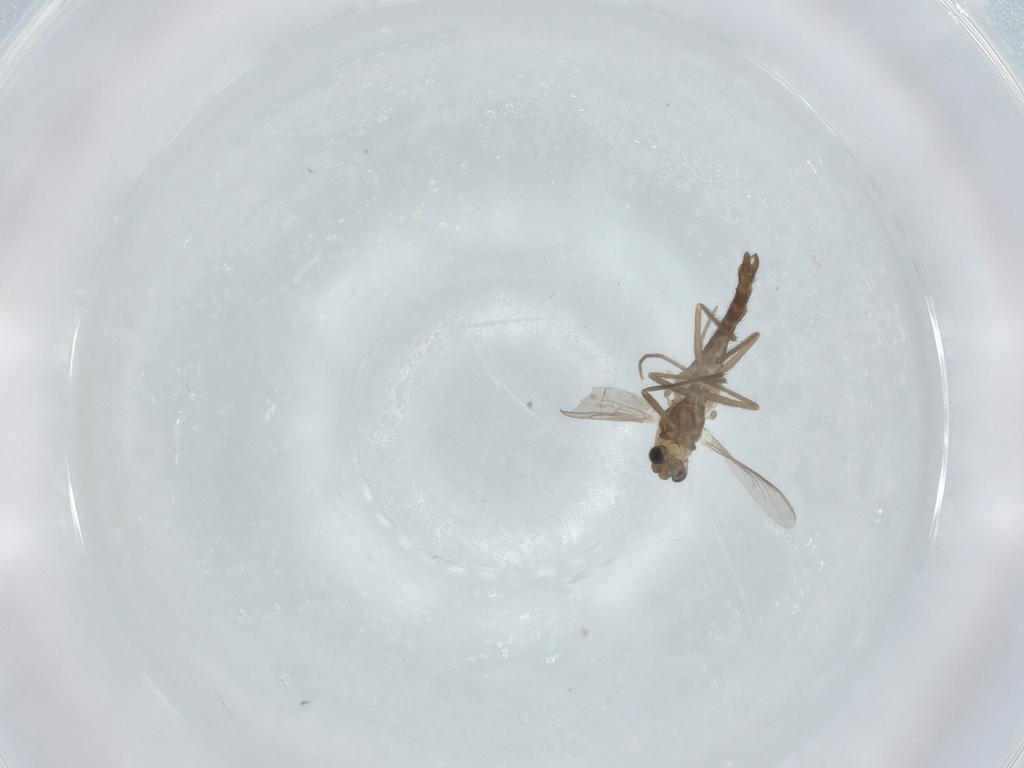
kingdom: Animalia
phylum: Arthropoda
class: Insecta
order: Diptera
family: Chironomidae
